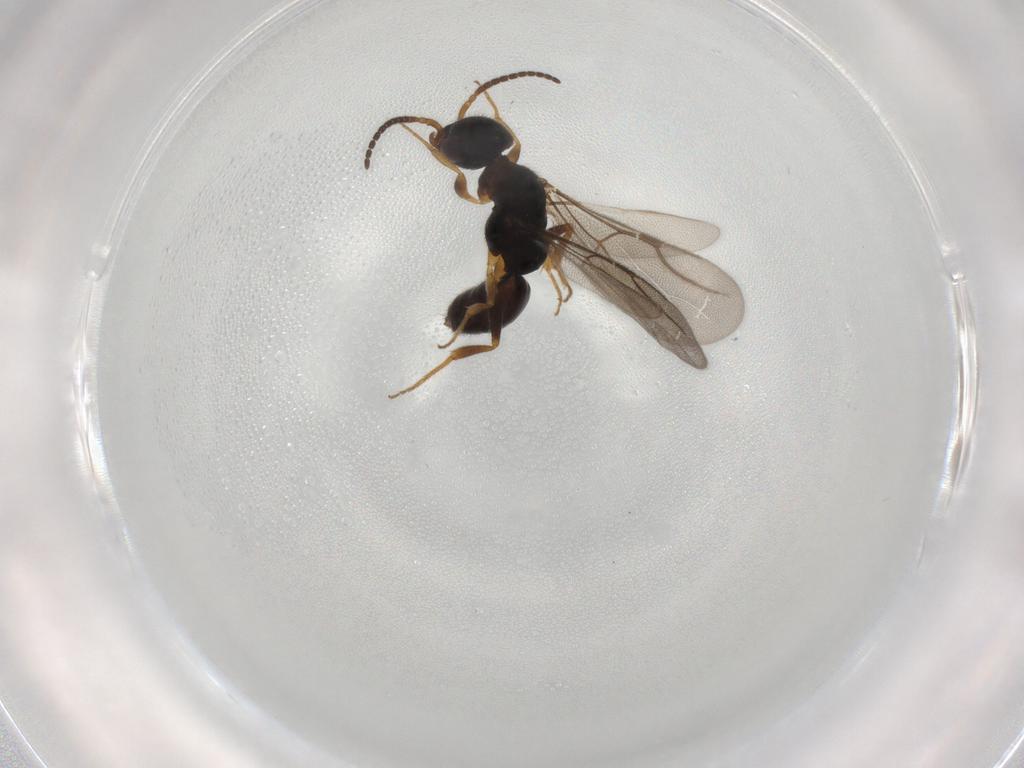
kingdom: Animalia
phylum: Arthropoda
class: Insecta
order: Hymenoptera
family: Bethylidae
